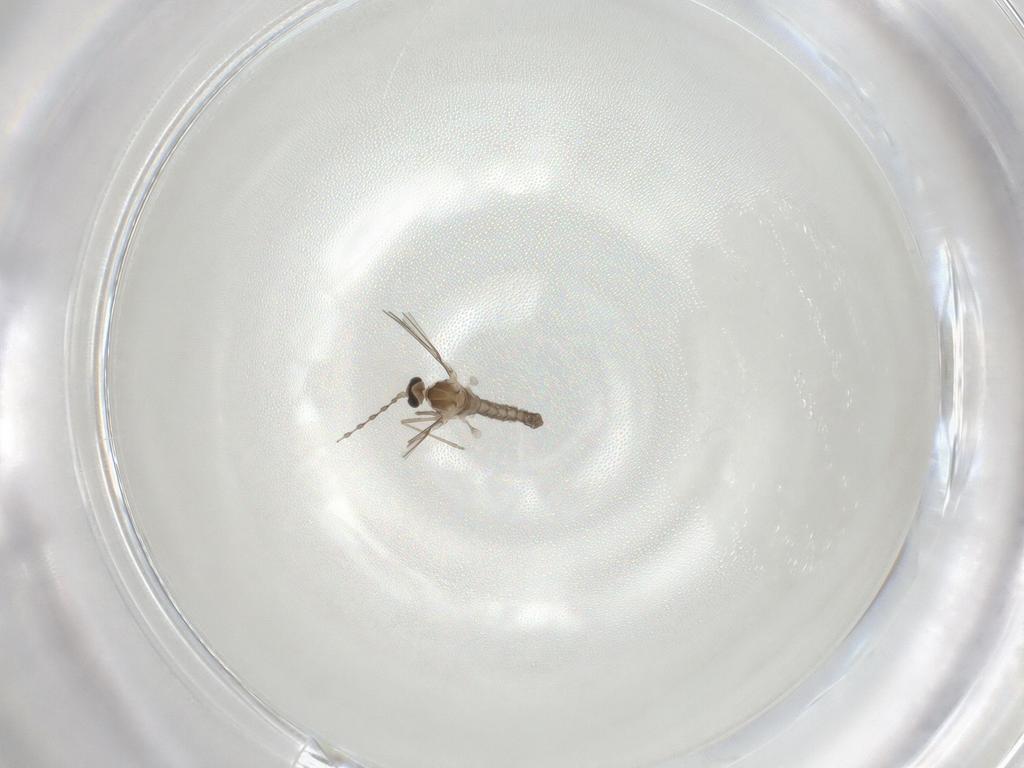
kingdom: Animalia
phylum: Arthropoda
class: Insecta
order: Diptera
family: Cecidomyiidae
